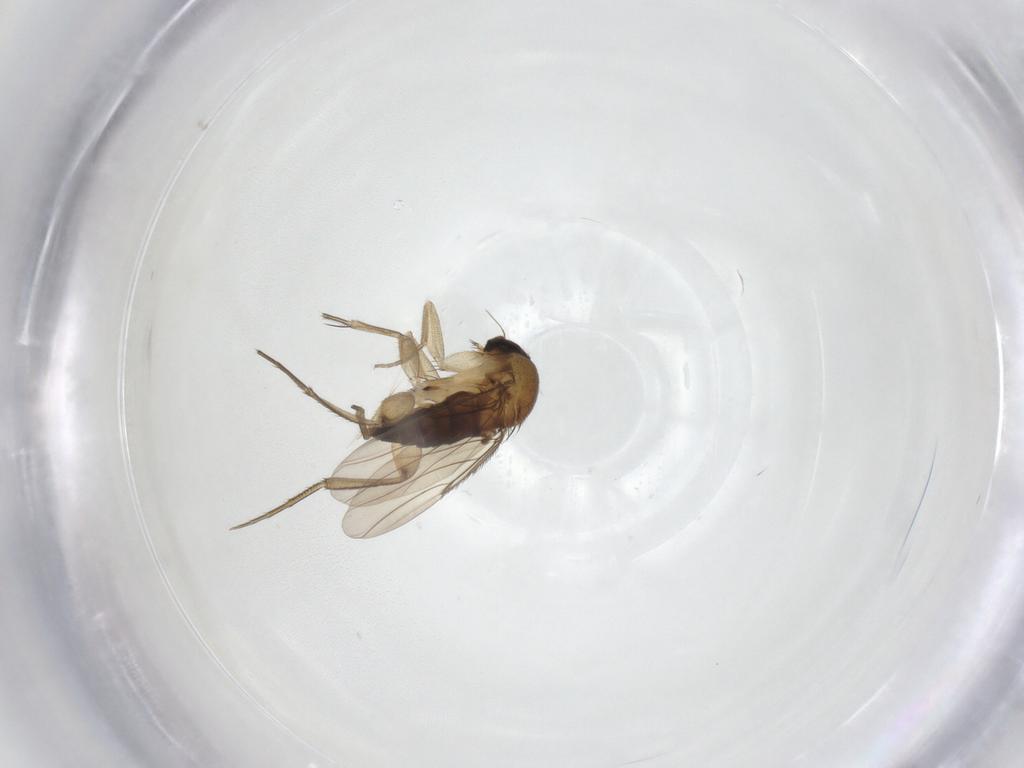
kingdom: Animalia
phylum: Arthropoda
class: Insecta
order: Diptera
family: Phoridae
